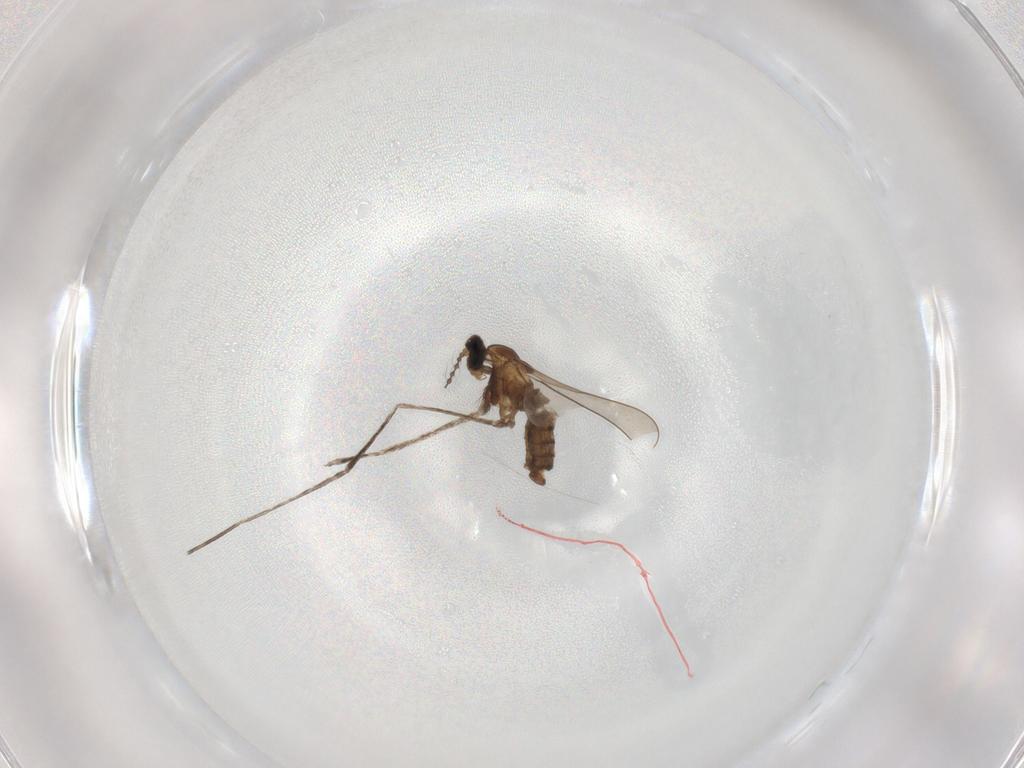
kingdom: Animalia
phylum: Arthropoda
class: Insecta
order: Diptera
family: Cecidomyiidae
